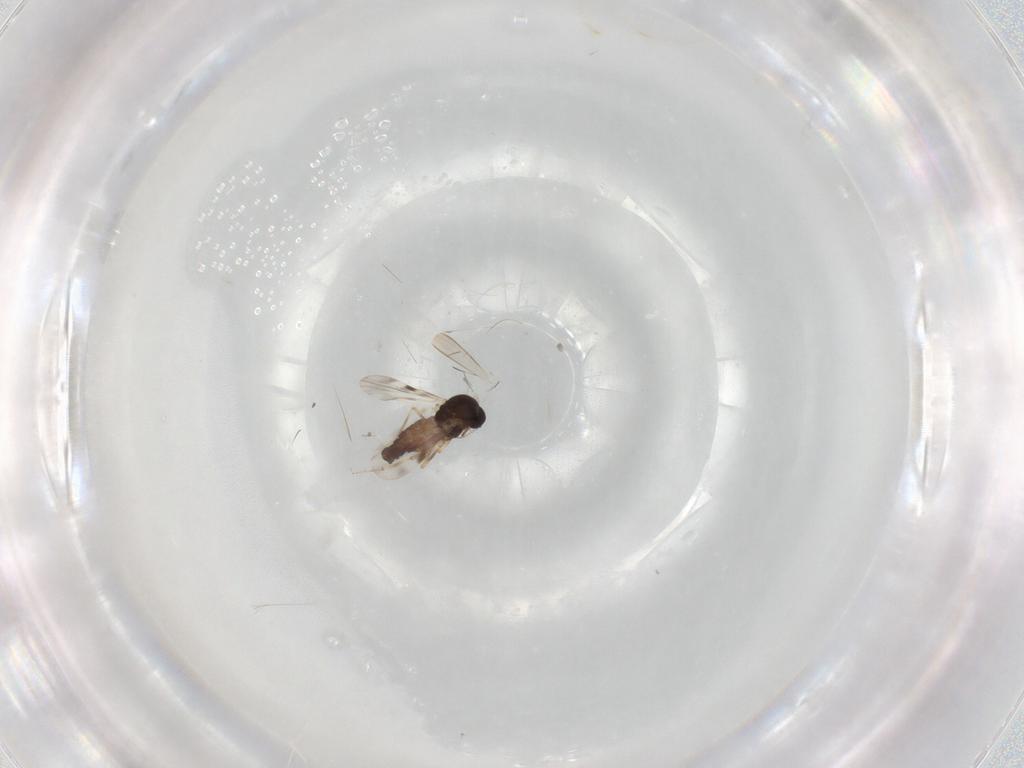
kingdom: Animalia
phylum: Arthropoda
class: Insecta
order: Diptera
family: Ceratopogonidae
